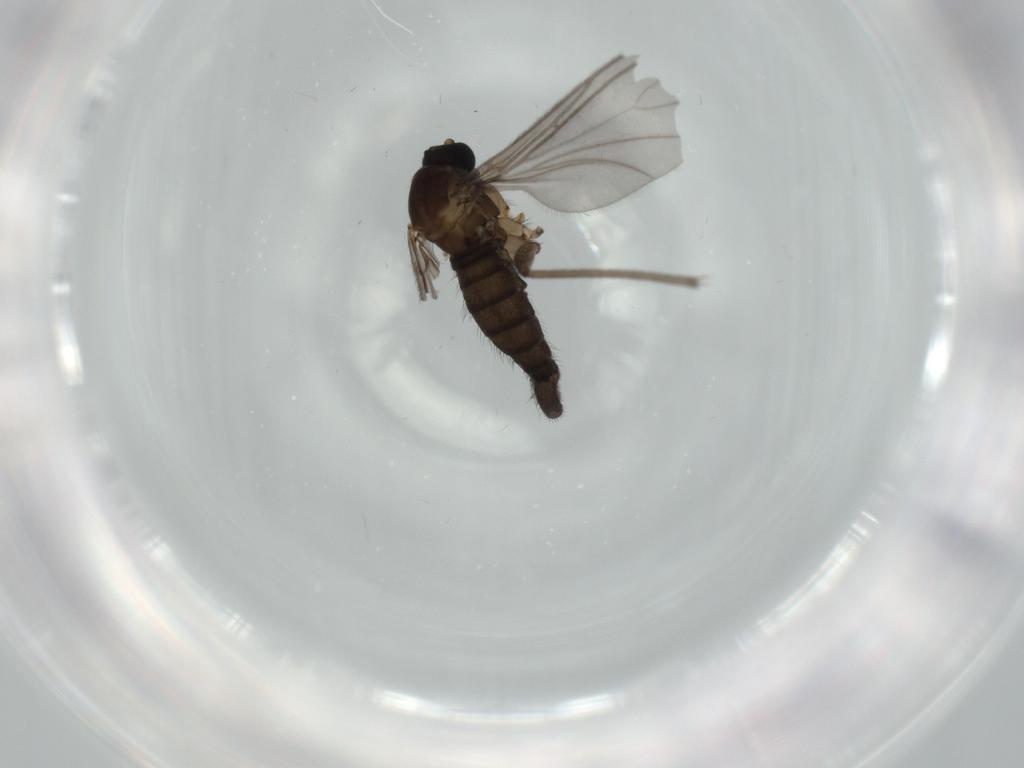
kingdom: Animalia
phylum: Arthropoda
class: Insecta
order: Diptera
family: Sciaridae
